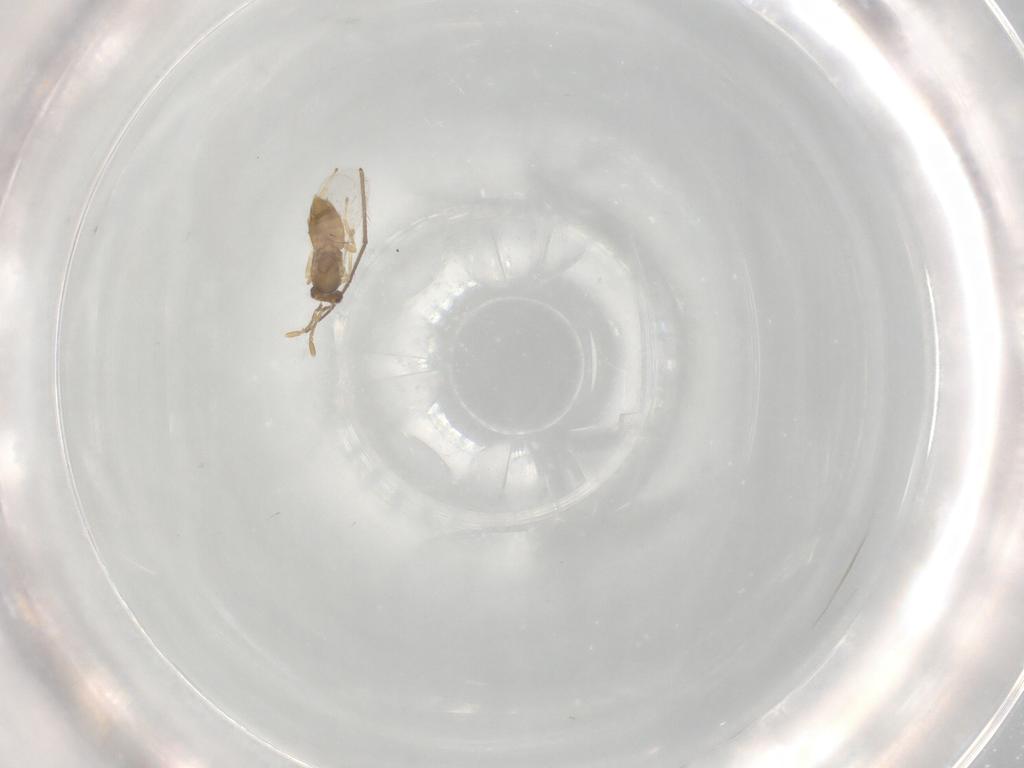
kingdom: Animalia
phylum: Arthropoda
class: Insecta
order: Hymenoptera
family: Encyrtidae
